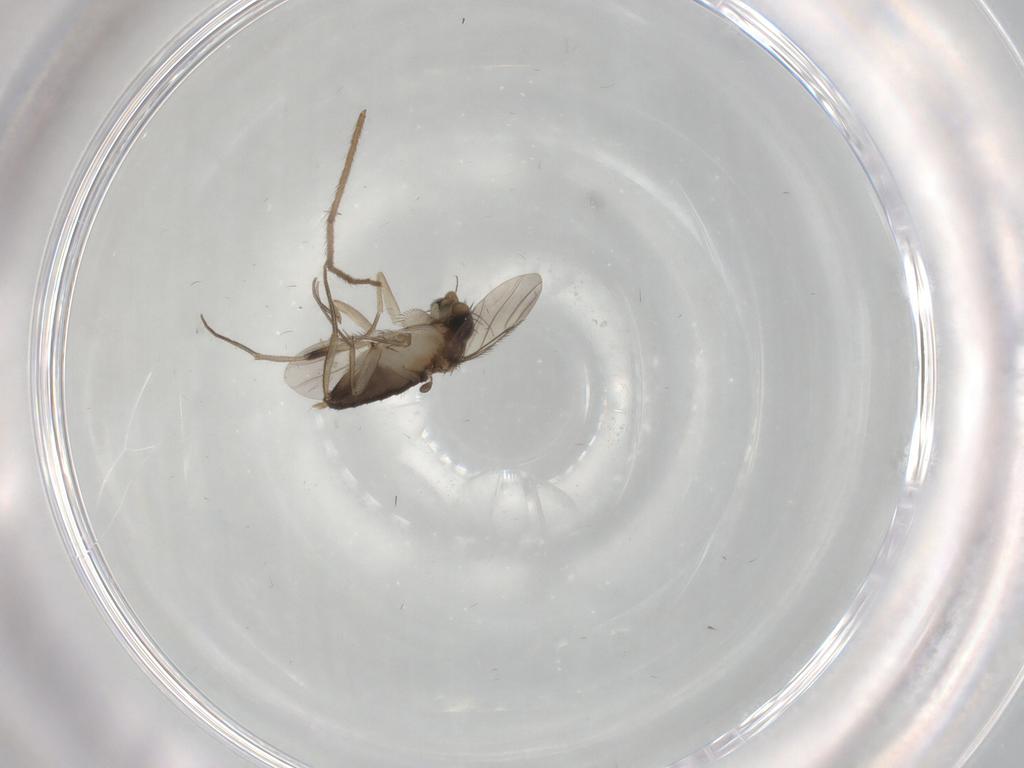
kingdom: Animalia
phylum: Arthropoda
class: Insecta
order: Diptera
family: Phoridae
